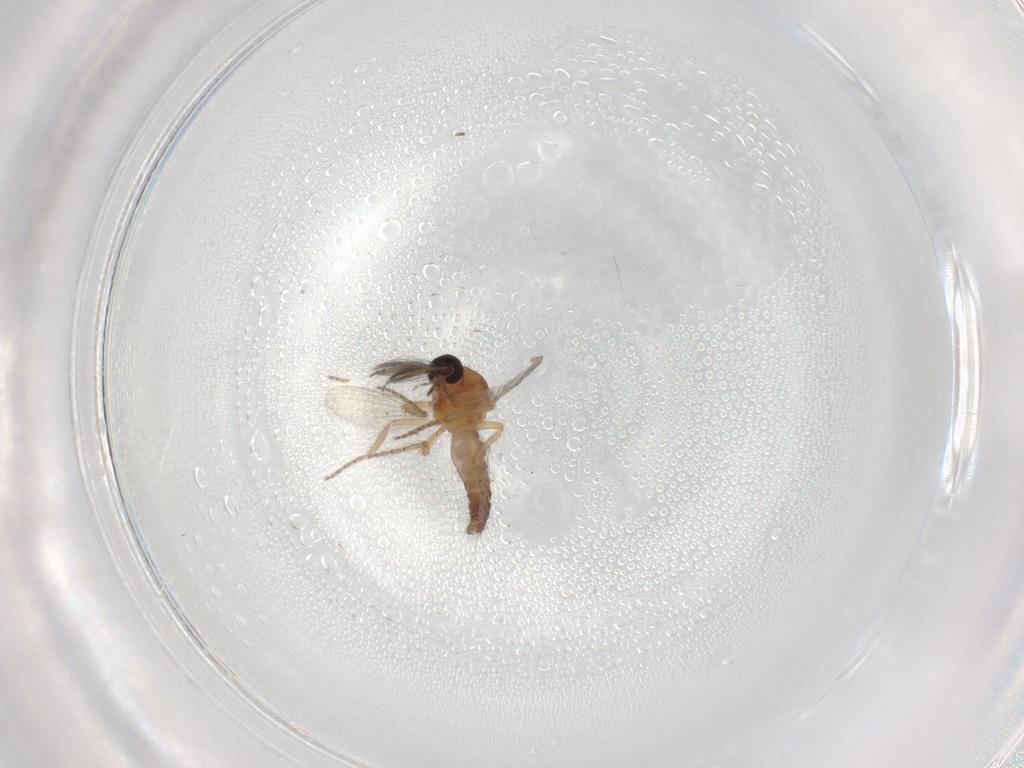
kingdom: Animalia
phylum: Arthropoda
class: Insecta
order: Diptera
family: Ceratopogonidae
